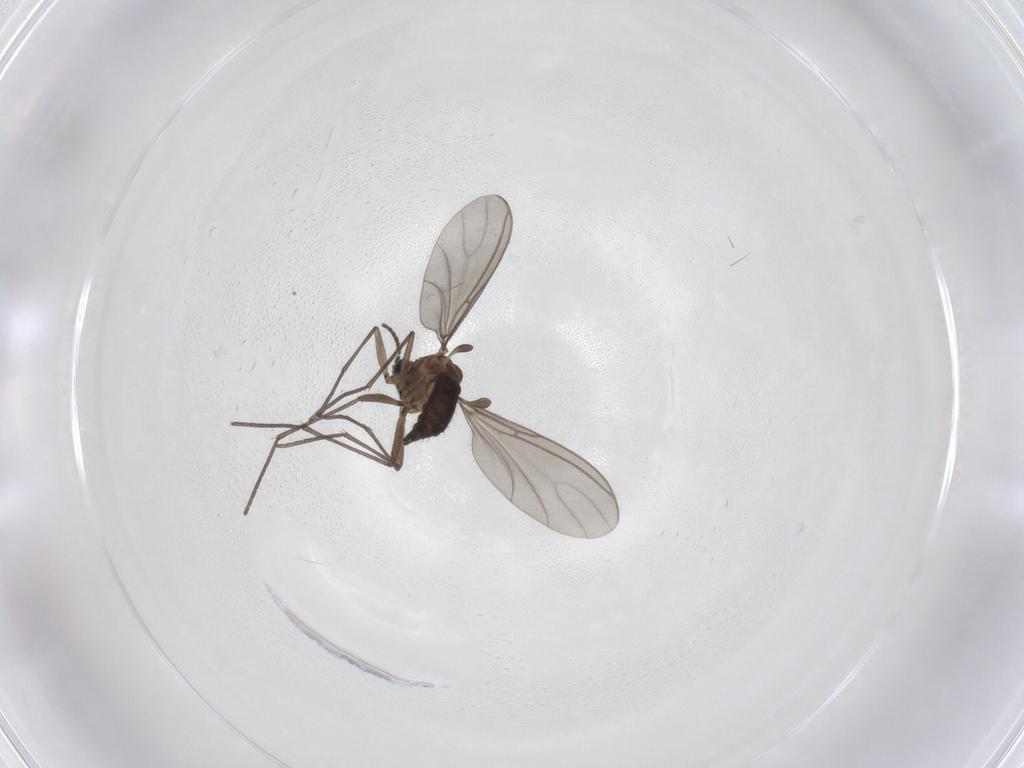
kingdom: Animalia
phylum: Arthropoda
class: Insecta
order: Diptera
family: Sciaridae
